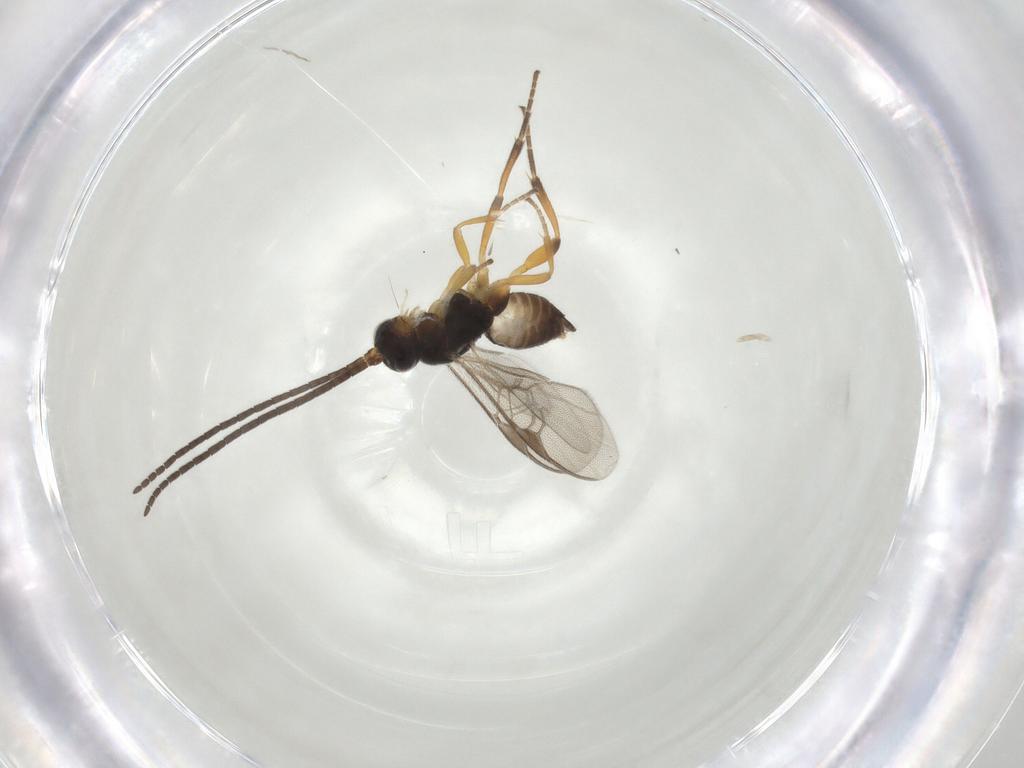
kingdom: Animalia
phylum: Arthropoda
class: Insecta
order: Hymenoptera
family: Braconidae
